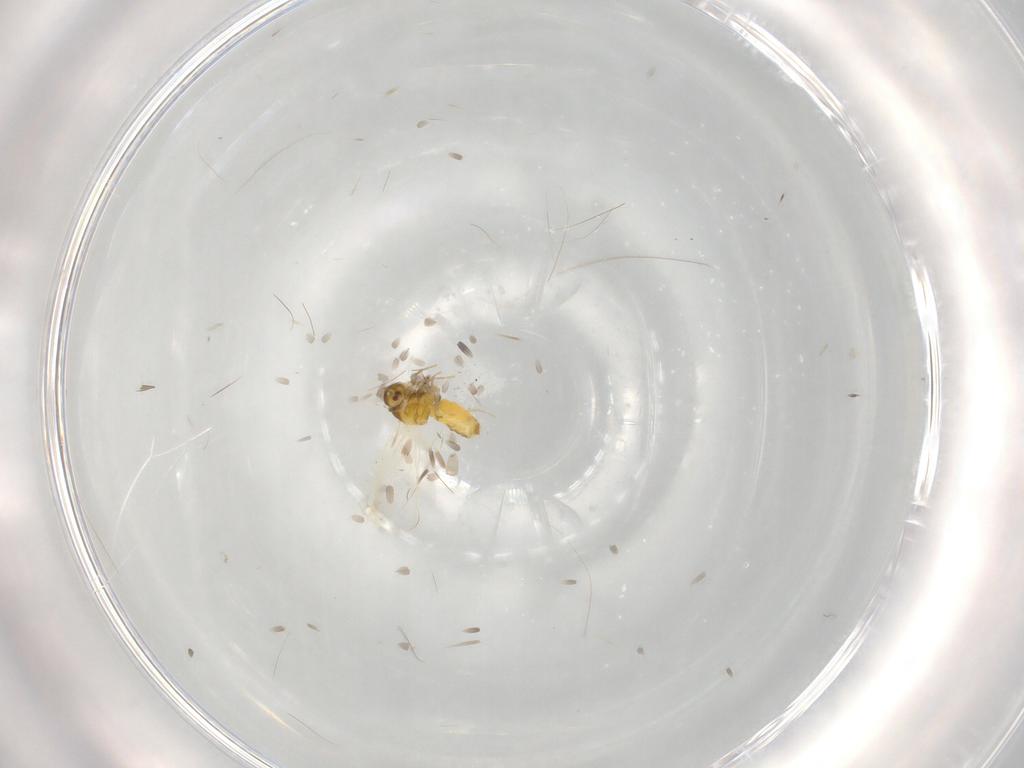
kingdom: Animalia
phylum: Arthropoda
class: Insecta
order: Hemiptera
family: Aleyrodidae
